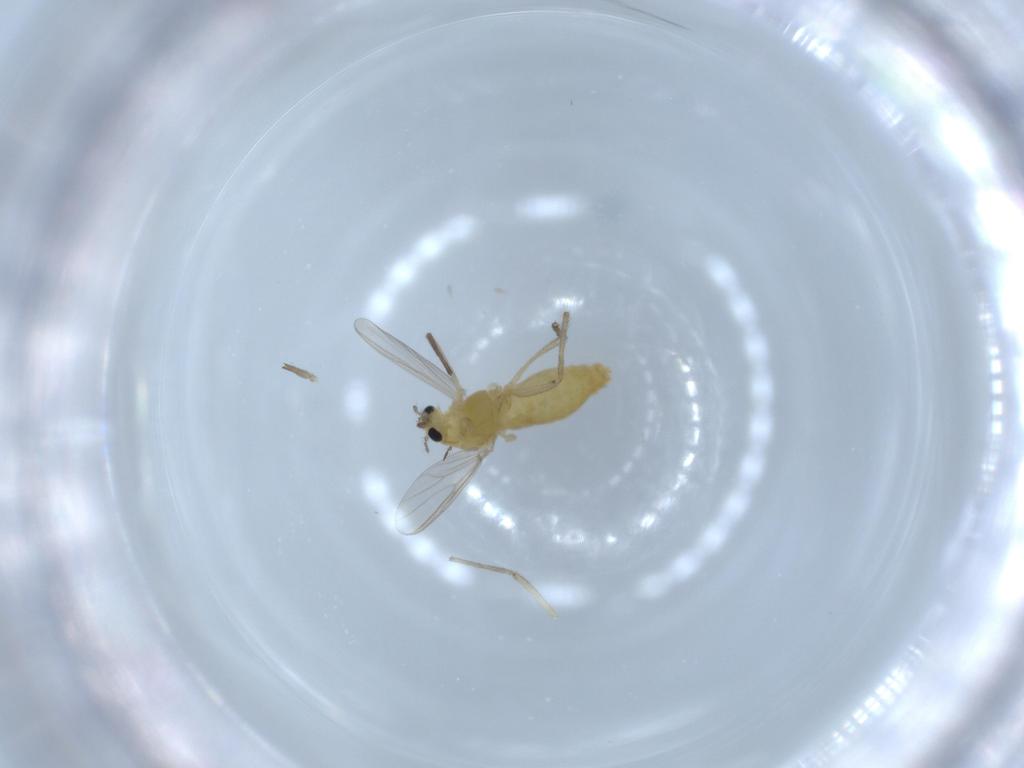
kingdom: Animalia
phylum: Arthropoda
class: Insecta
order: Diptera
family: Chironomidae
